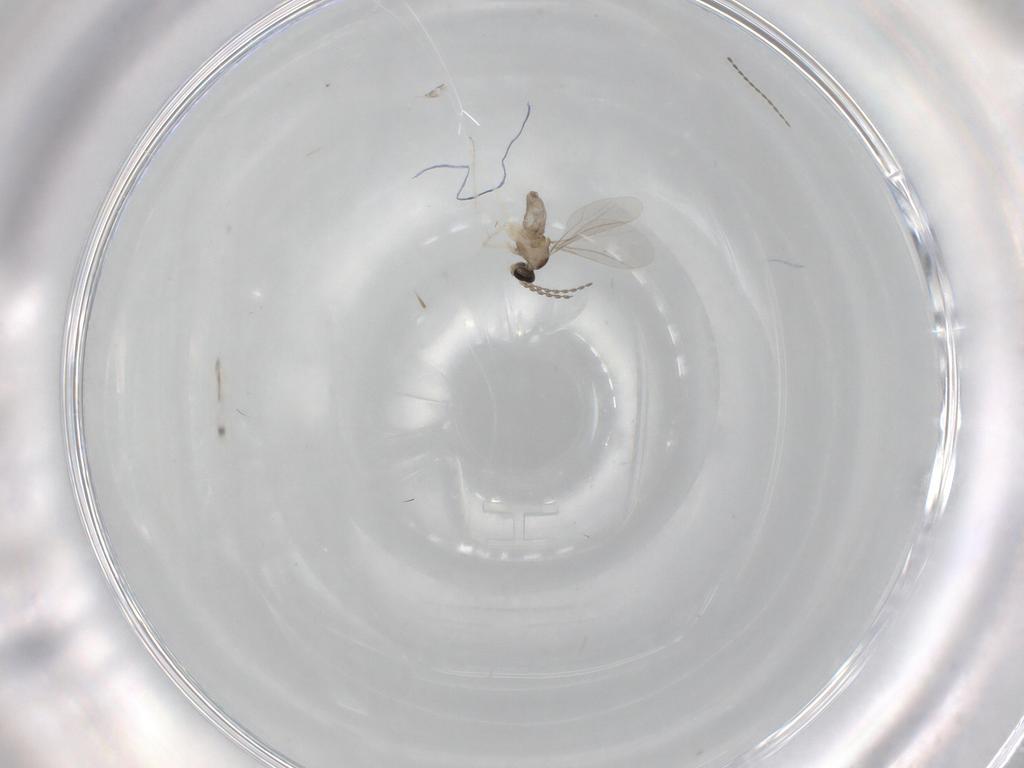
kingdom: Animalia
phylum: Arthropoda
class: Insecta
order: Diptera
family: Cecidomyiidae
